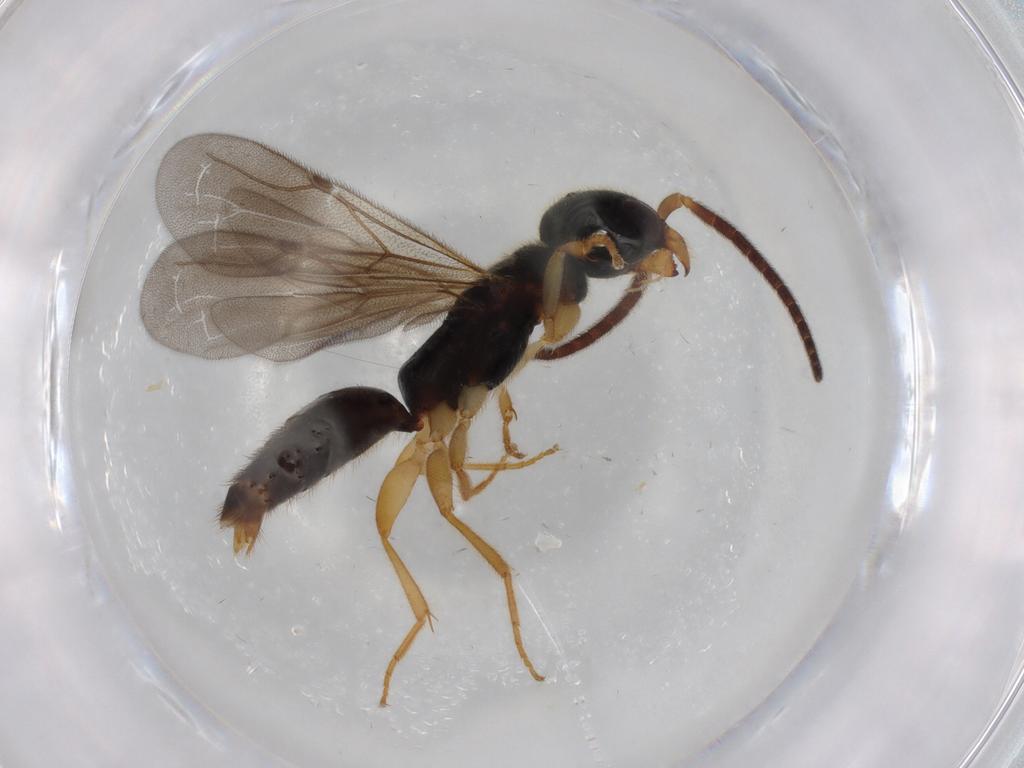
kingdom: Animalia
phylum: Arthropoda
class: Insecta
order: Hymenoptera
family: Bethylidae
